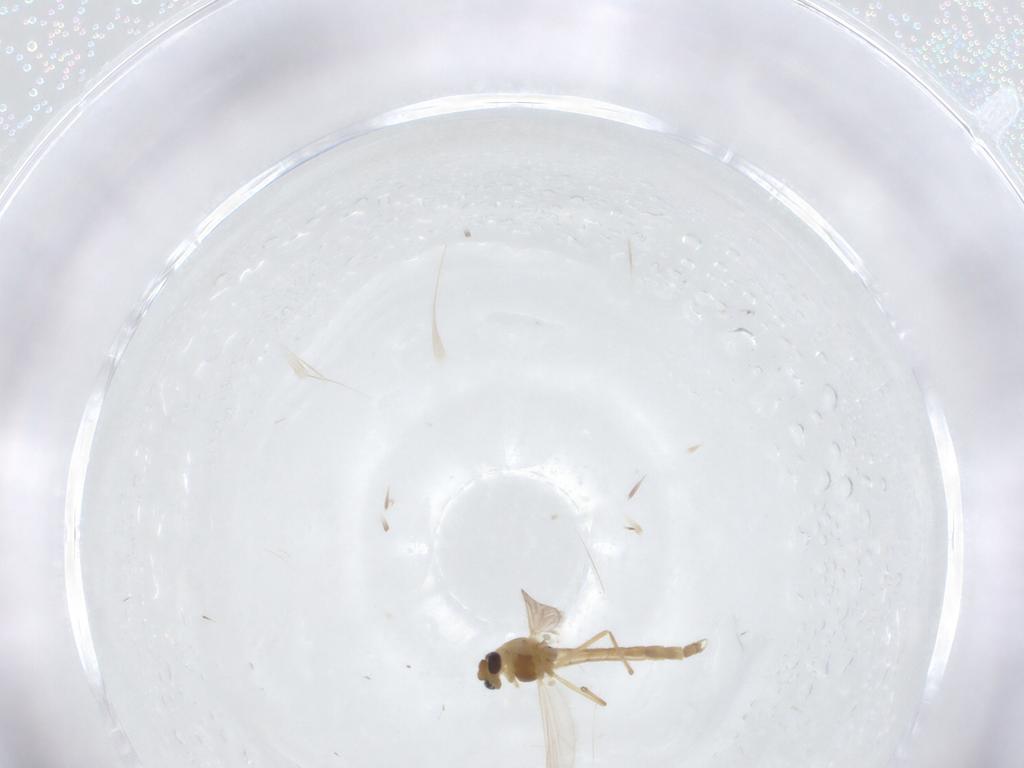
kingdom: Animalia
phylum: Arthropoda
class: Insecta
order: Diptera
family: Chironomidae
